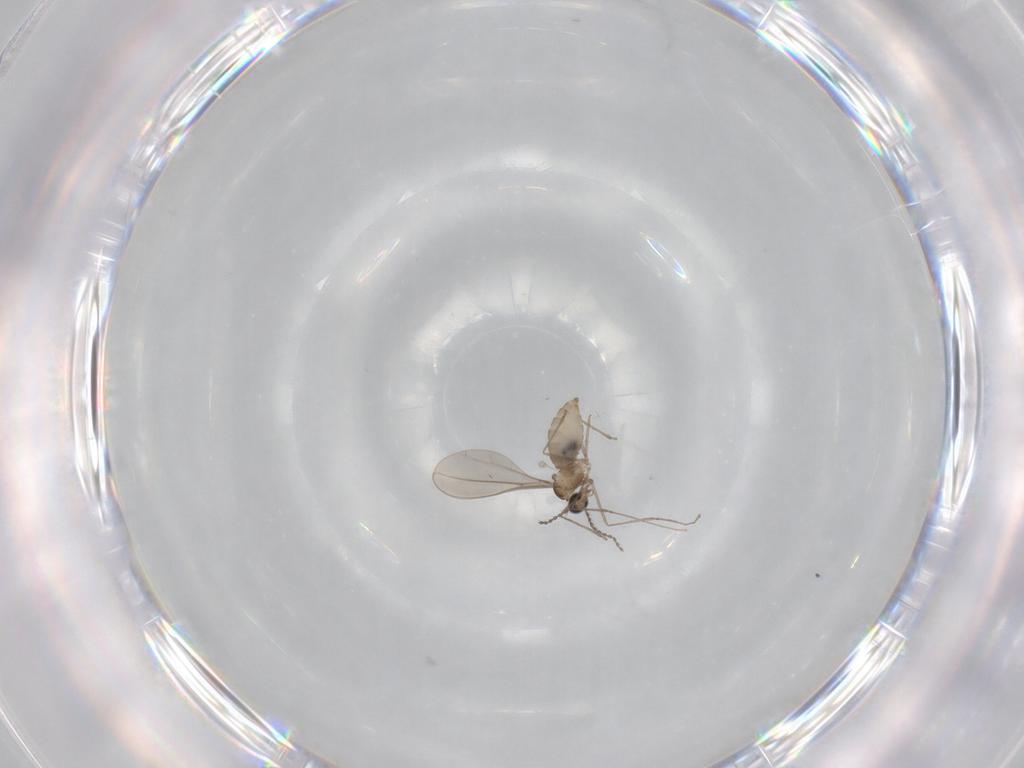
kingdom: Animalia
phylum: Arthropoda
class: Insecta
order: Diptera
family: Cecidomyiidae
